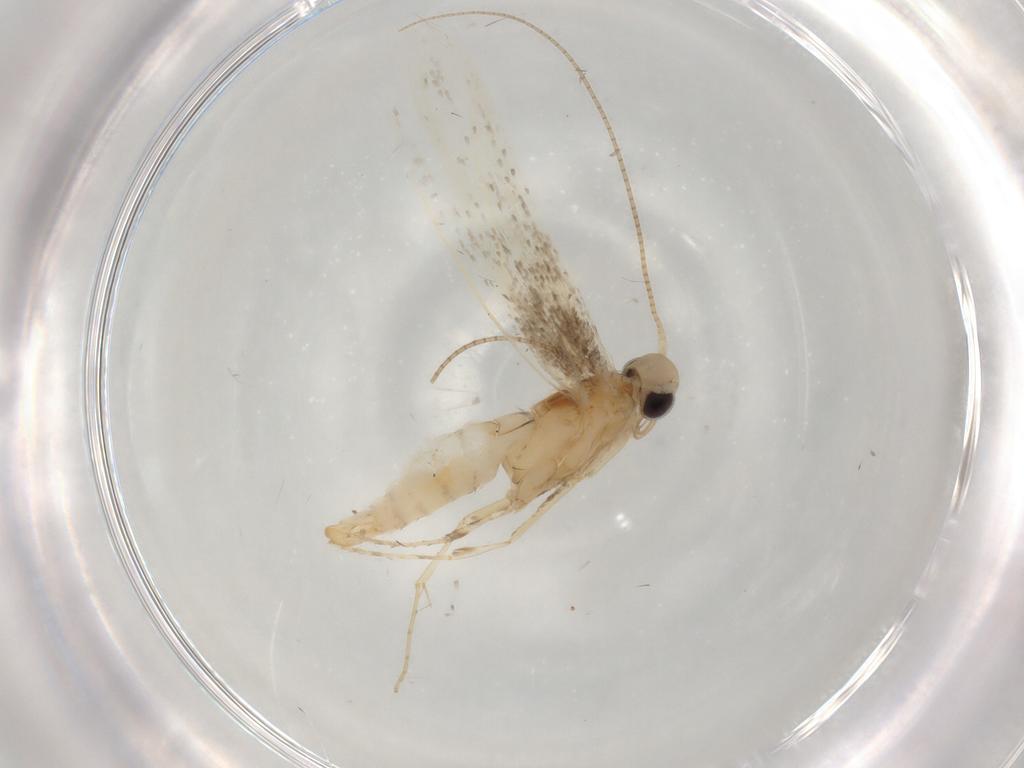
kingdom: Animalia
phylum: Arthropoda
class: Insecta
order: Lepidoptera
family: Gracillariidae
